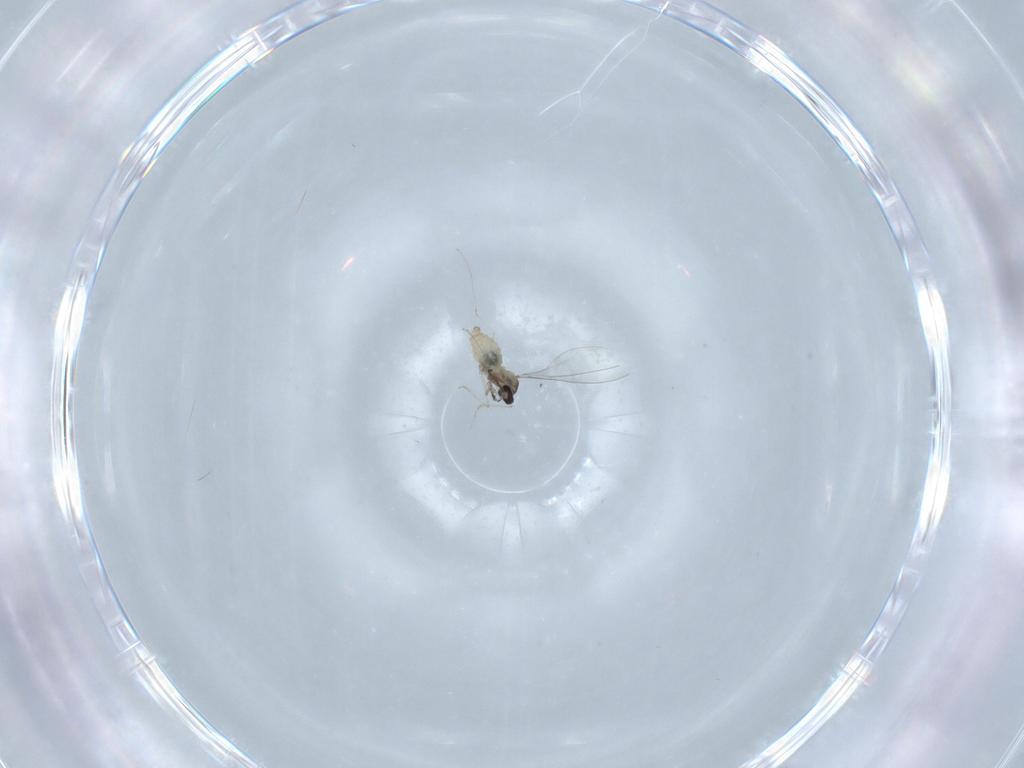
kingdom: Animalia
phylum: Arthropoda
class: Insecta
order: Diptera
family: Cecidomyiidae
